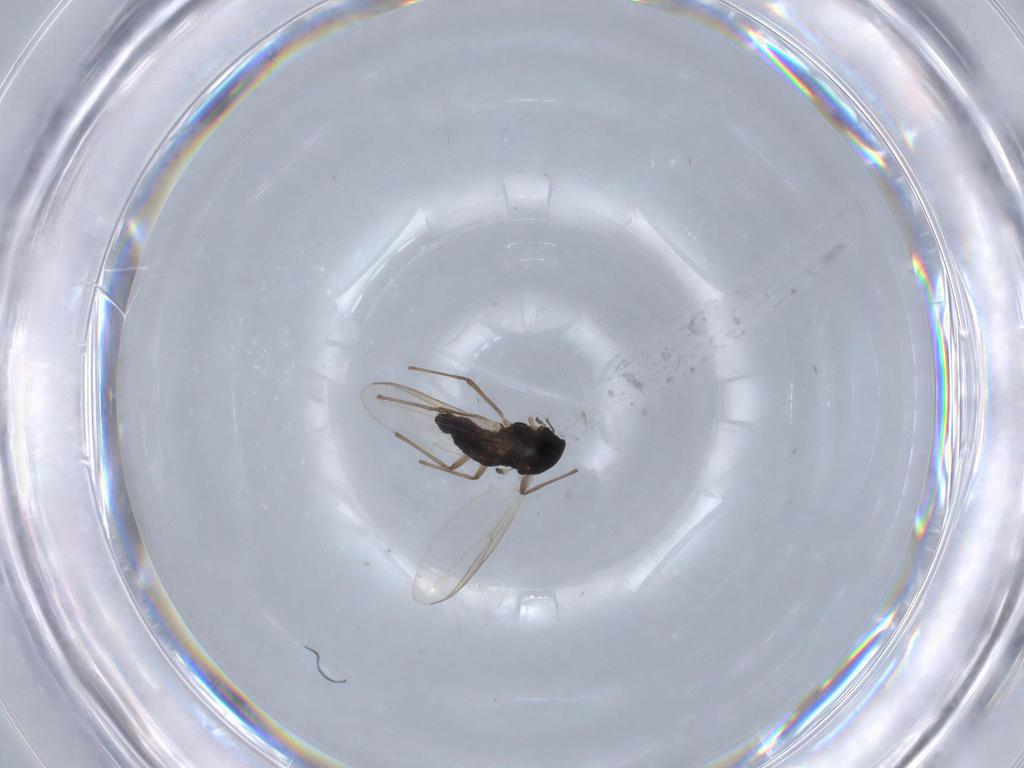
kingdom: Animalia
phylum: Arthropoda
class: Insecta
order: Diptera
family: Chironomidae
